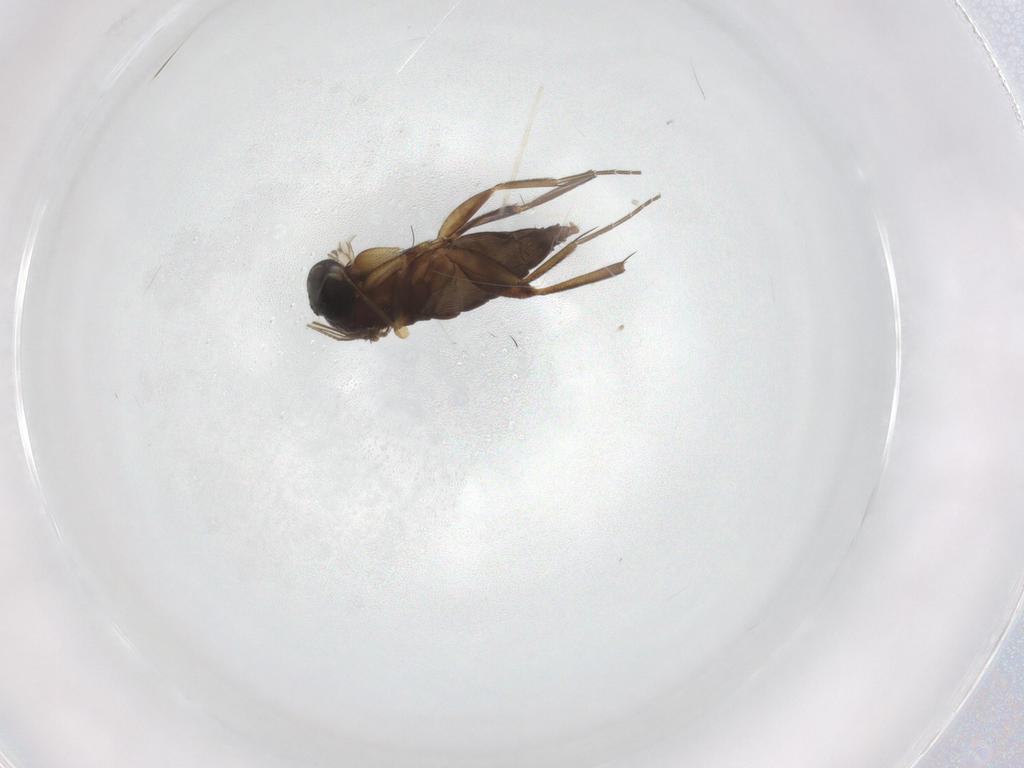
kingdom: Animalia
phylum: Arthropoda
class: Insecta
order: Diptera
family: Phoridae
